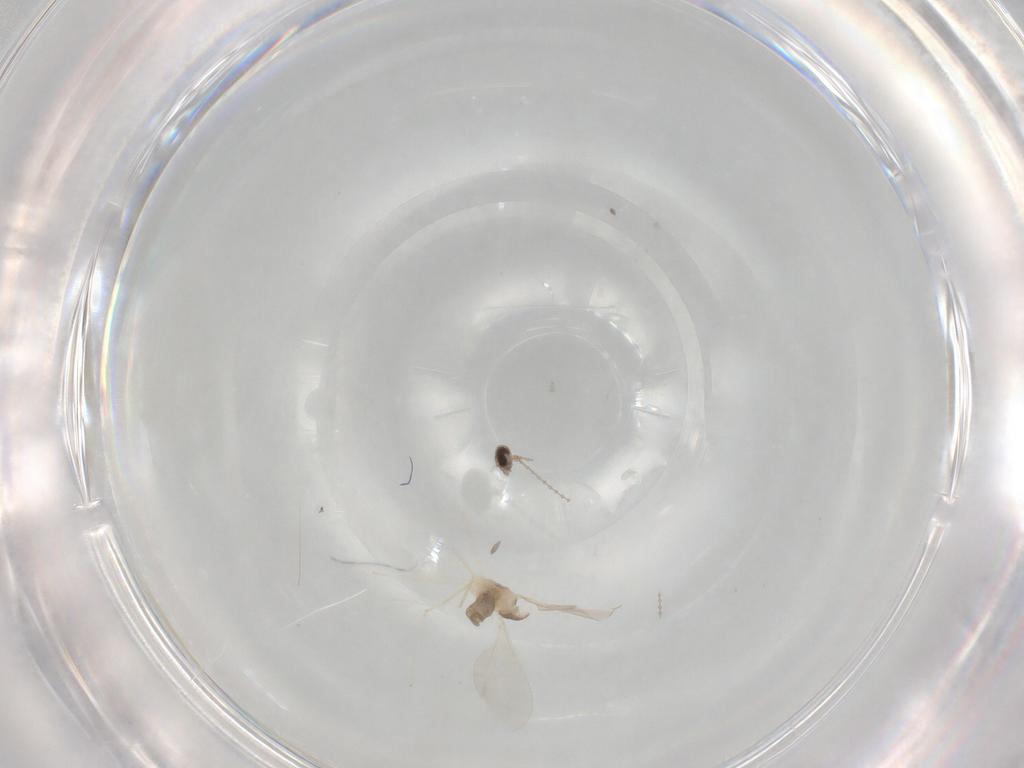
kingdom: Animalia
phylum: Arthropoda
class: Insecta
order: Diptera
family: Cecidomyiidae
